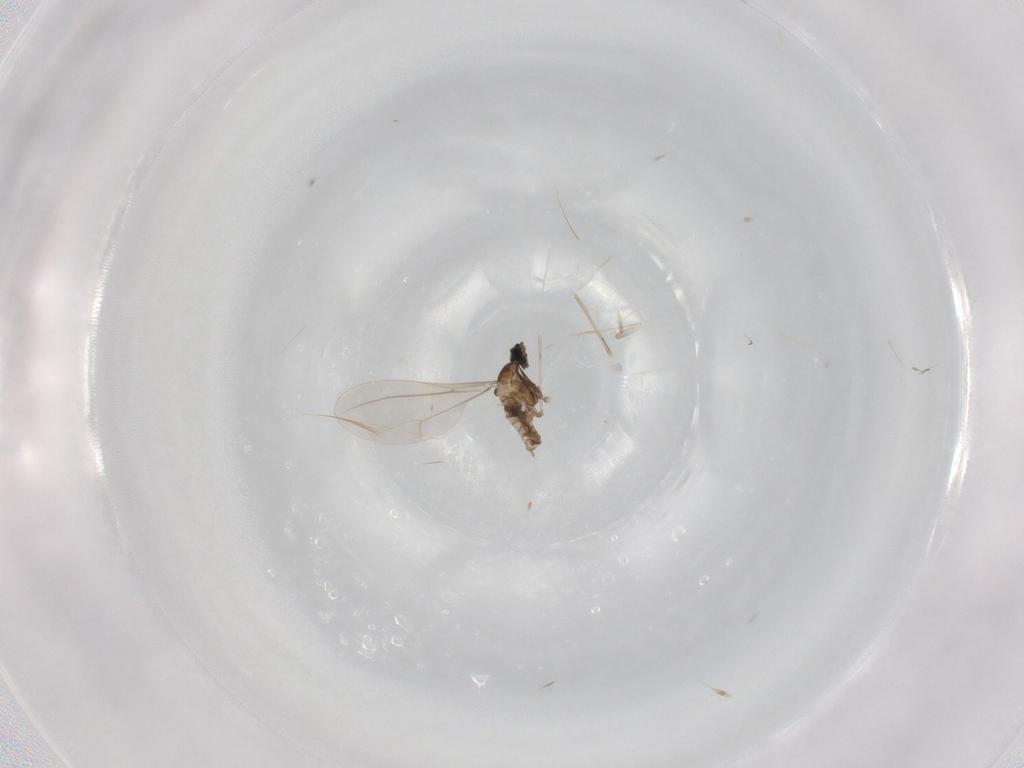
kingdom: Animalia
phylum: Arthropoda
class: Insecta
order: Diptera
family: Cecidomyiidae
